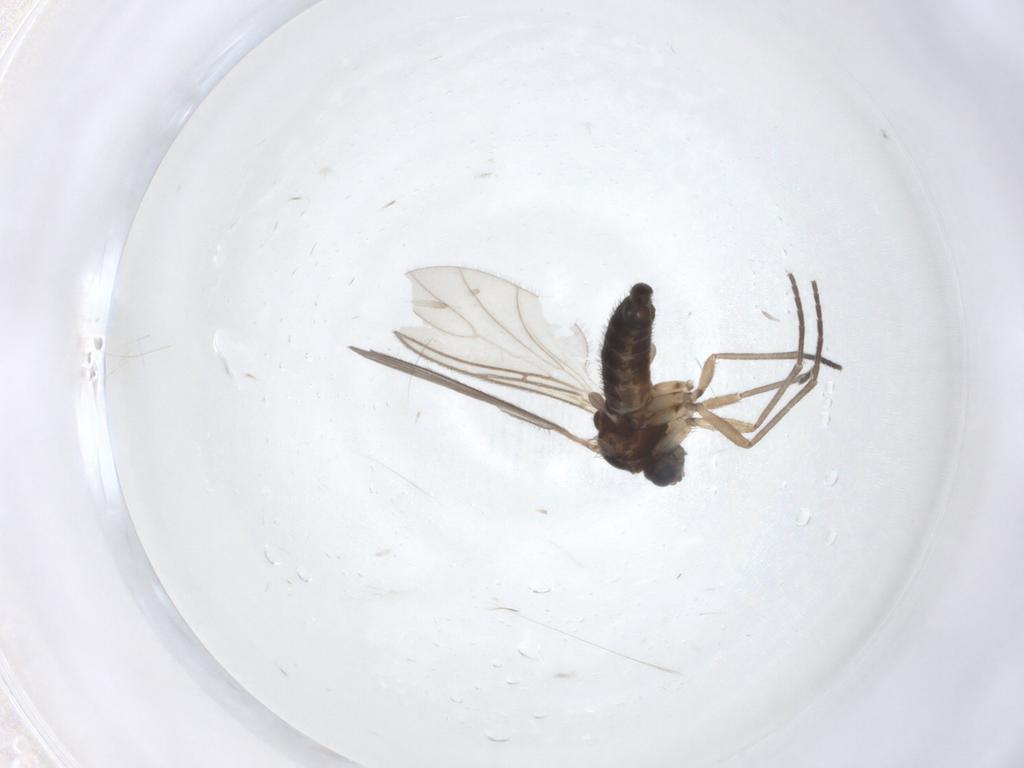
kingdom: Animalia
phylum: Arthropoda
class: Insecta
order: Diptera
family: Sciaridae
